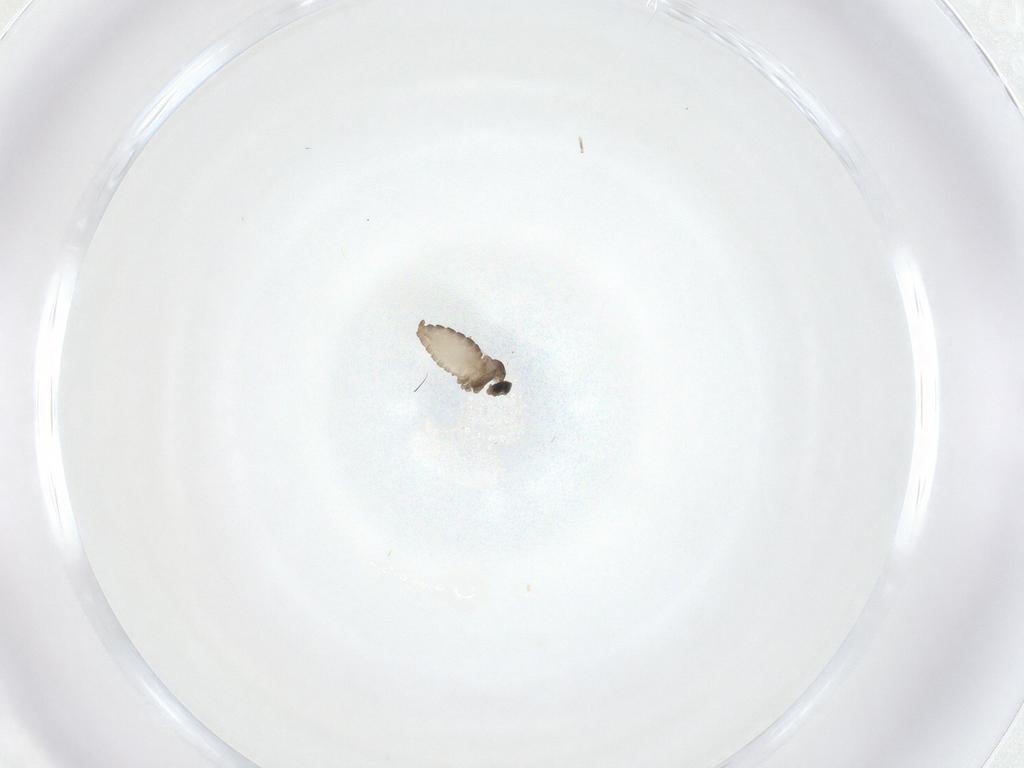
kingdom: Animalia
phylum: Arthropoda
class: Insecta
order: Diptera
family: Cecidomyiidae
